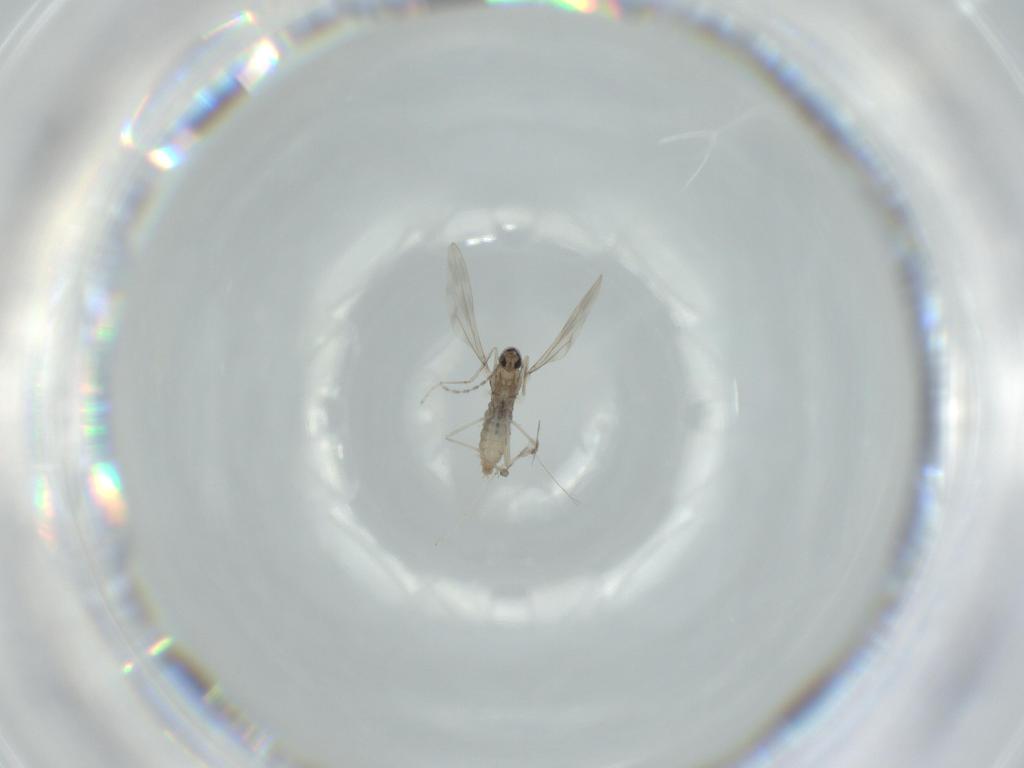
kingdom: Animalia
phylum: Arthropoda
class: Insecta
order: Diptera
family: Cecidomyiidae
